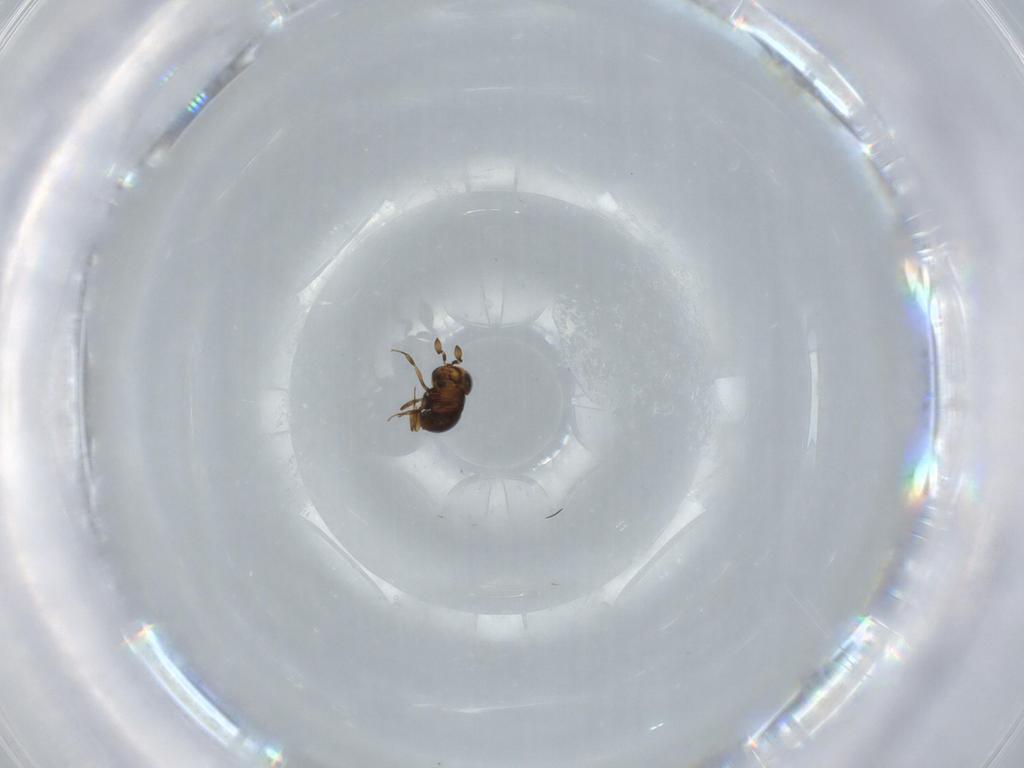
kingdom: Animalia
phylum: Arthropoda
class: Insecta
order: Hymenoptera
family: Scelionidae
